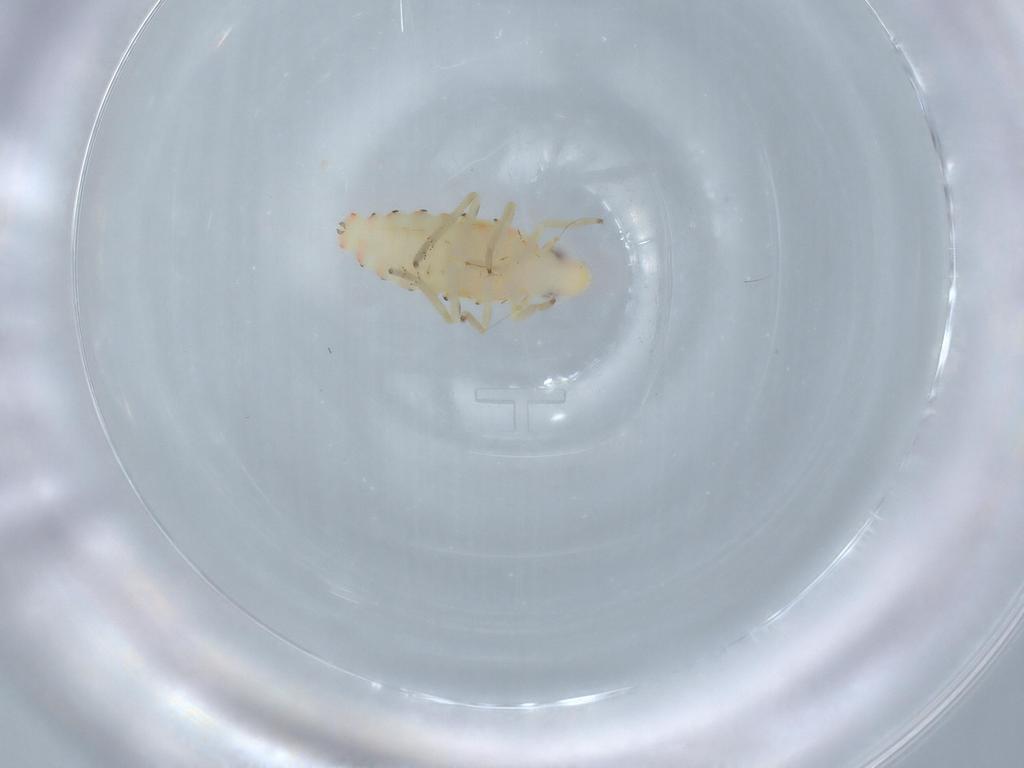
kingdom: Animalia
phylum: Arthropoda
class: Insecta
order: Hemiptera
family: Tropiduchidae
